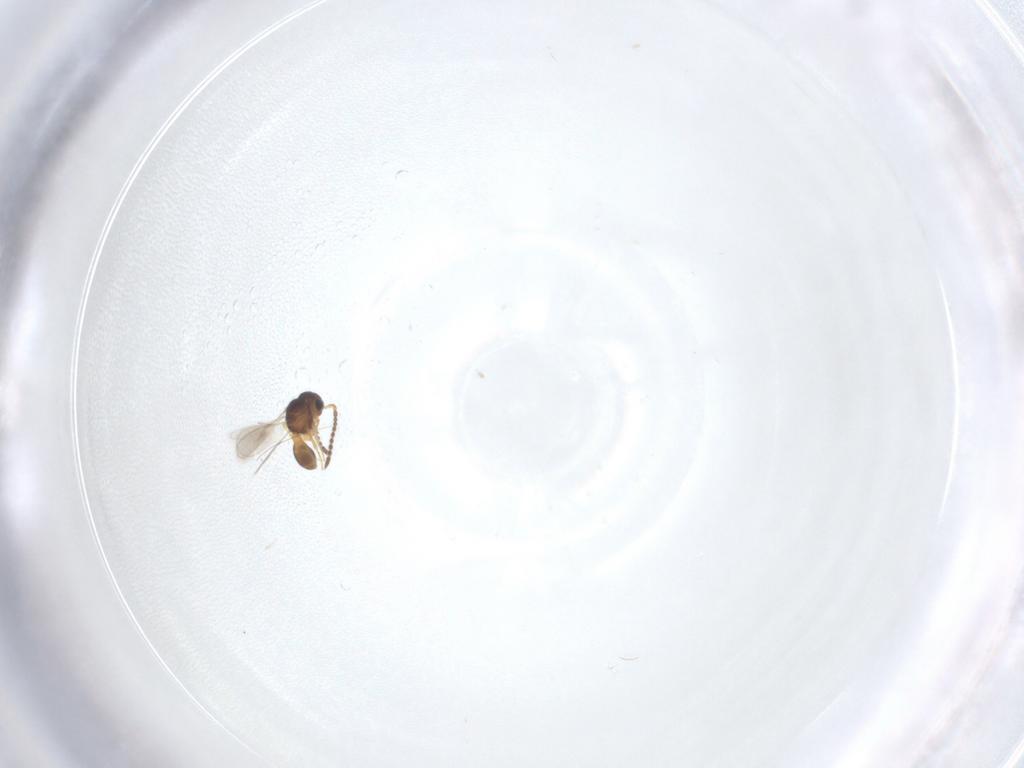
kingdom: Animalia
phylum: Arthropoda
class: Insecta
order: Hymenoptera
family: Scelionidae
